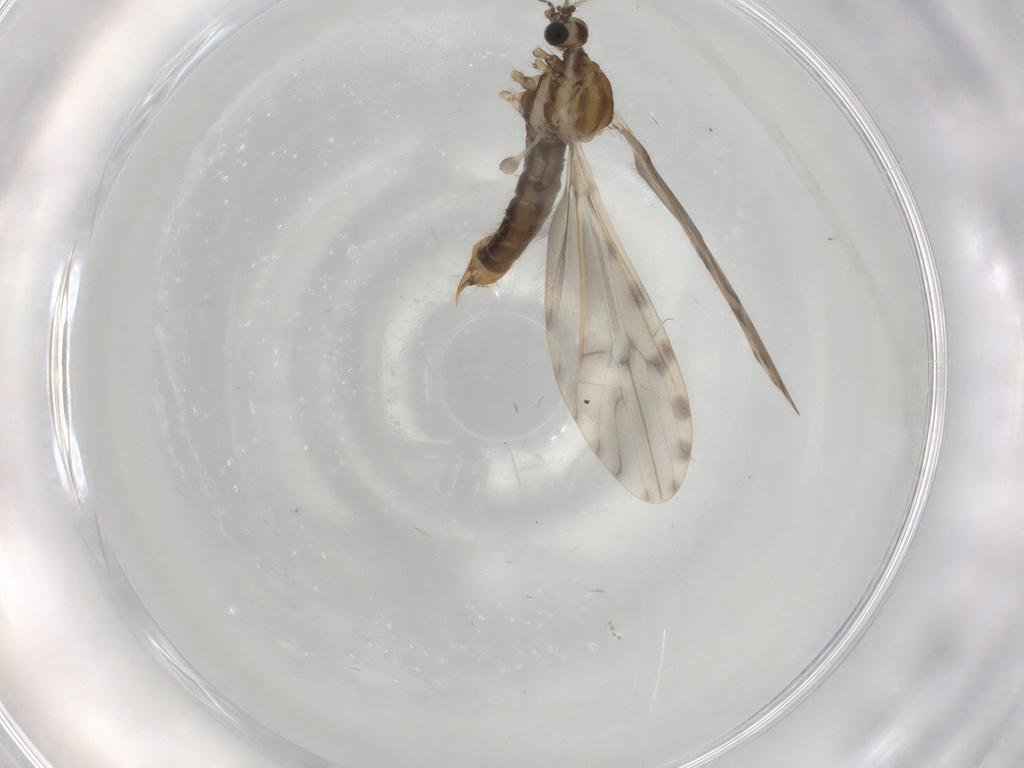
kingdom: Animalia
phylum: Arthropoda
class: Insecta
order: Diptera
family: Limoniidae
